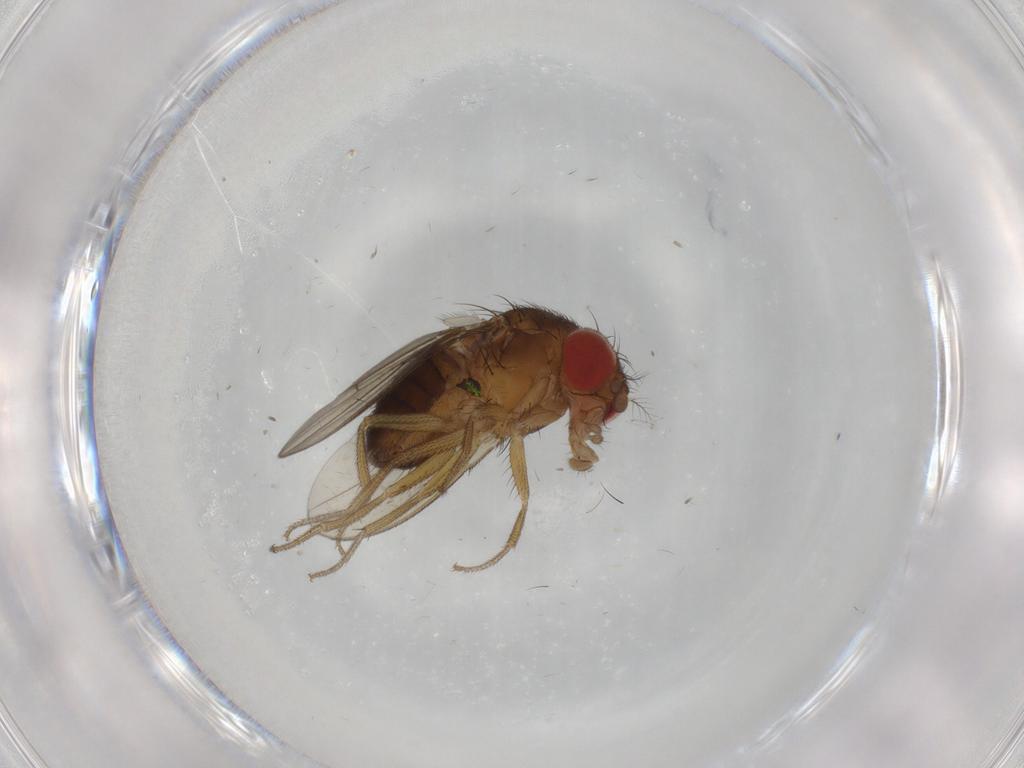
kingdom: Animalia
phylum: Arthropoda
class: Insecta
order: Diptera
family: Drosophilidae
